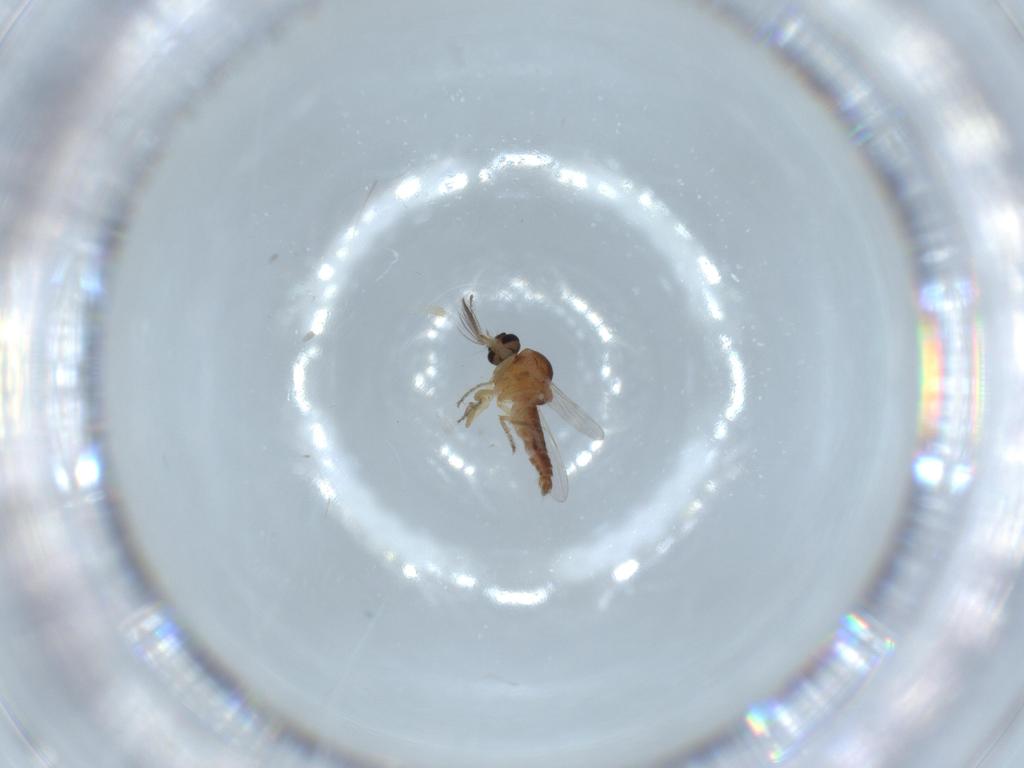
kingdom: Animalia
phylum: Arthropoda
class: Insecta
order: Diptera
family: Ceratopogonidae
